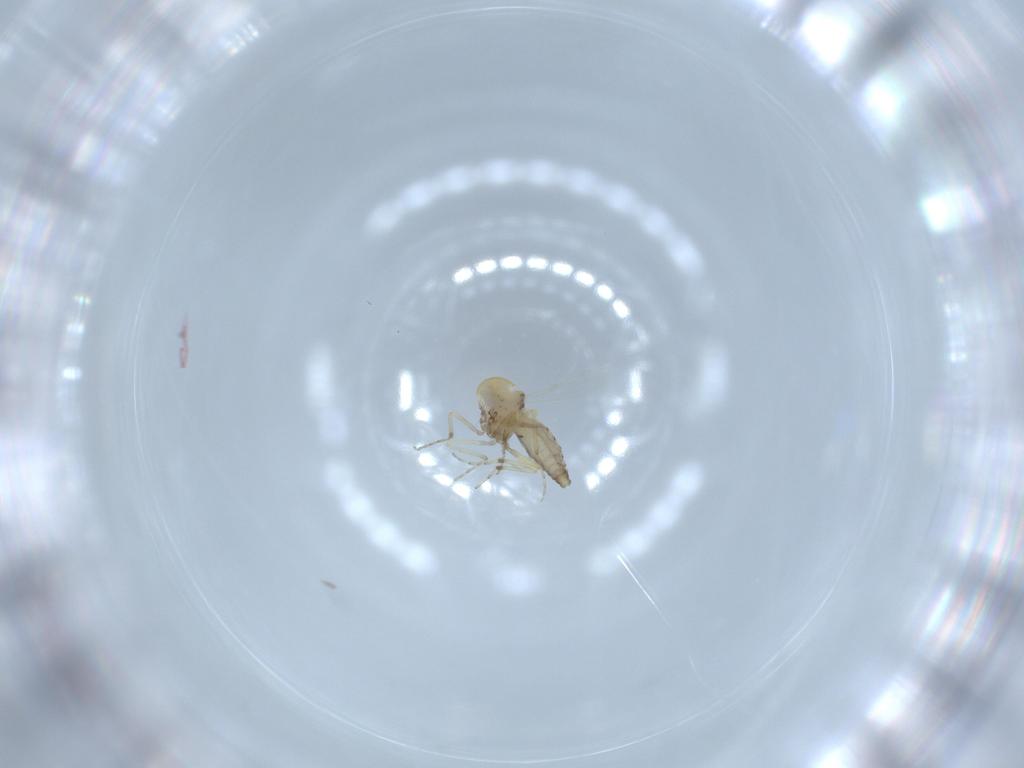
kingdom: Animalia
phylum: Arthropoda
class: Insecta
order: Diptera
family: Ceratopogonidae
